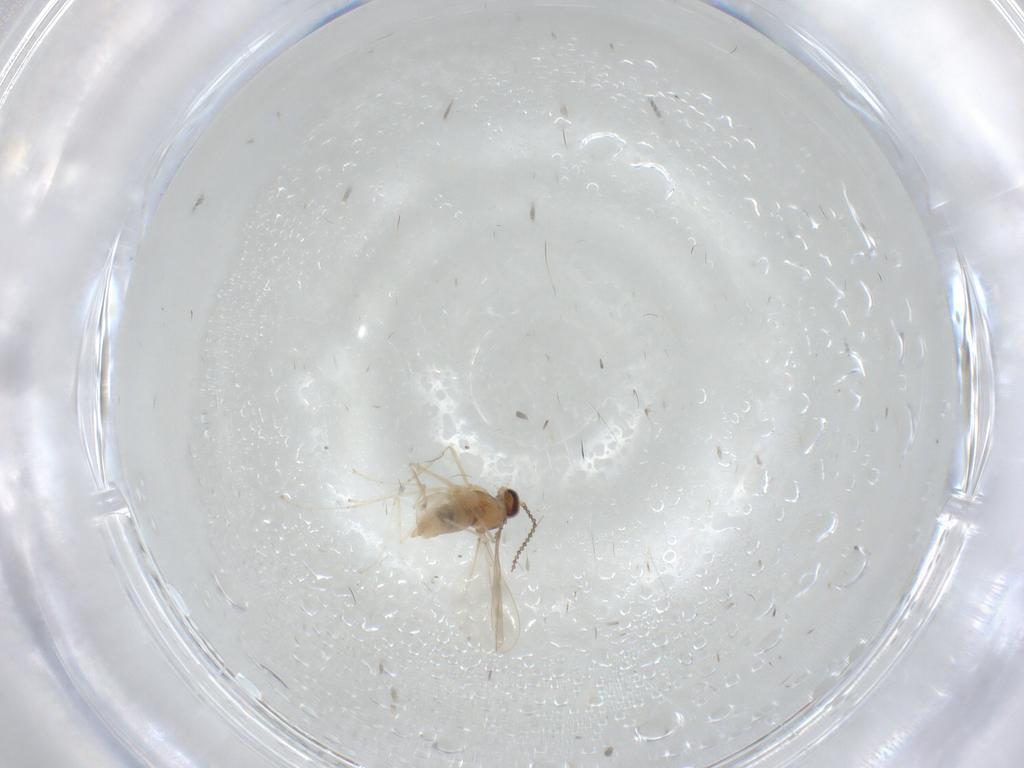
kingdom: Animalia
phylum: Arthropoda
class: Insecta
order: Diptera
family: Cecidomyiidae
